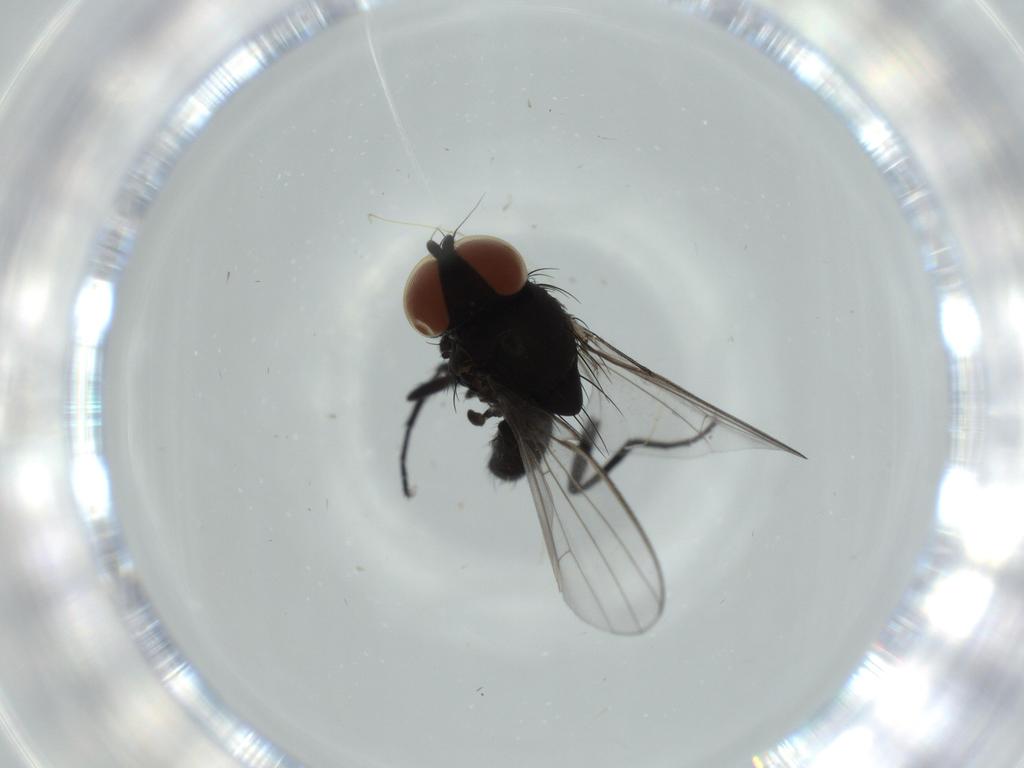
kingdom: Animalia
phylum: Arthropoda
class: Insecta
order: Diptera
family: Milichiidae
